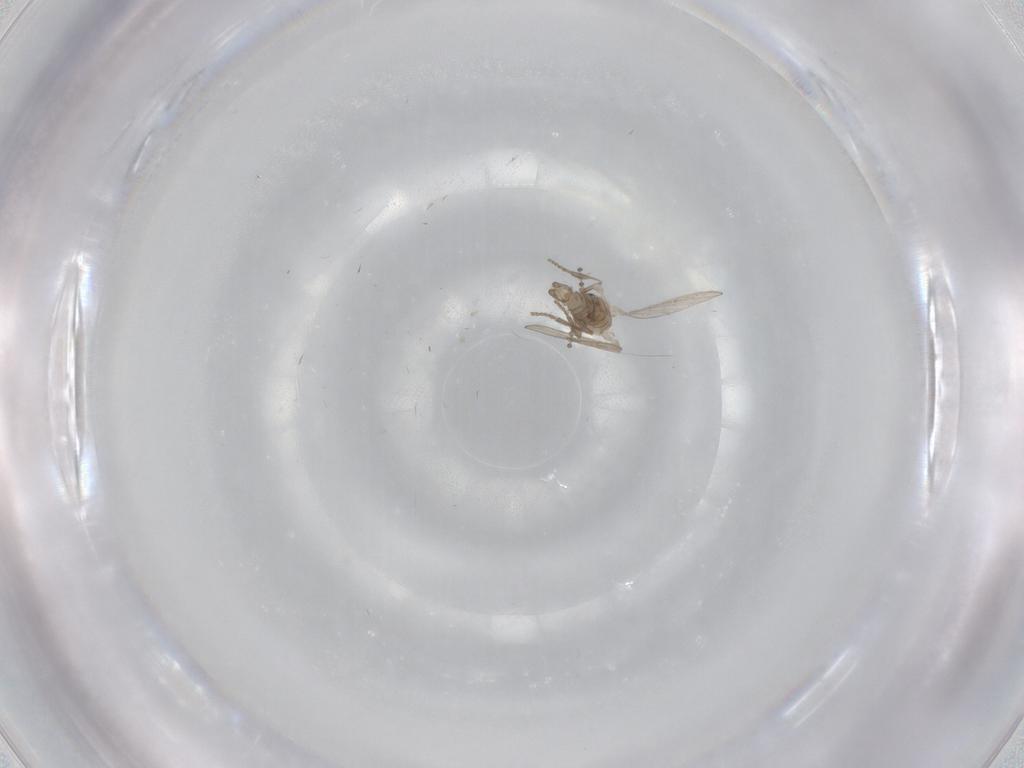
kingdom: Animalia
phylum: Arthropoda
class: Insecta
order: Diptera
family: Psychodidae
